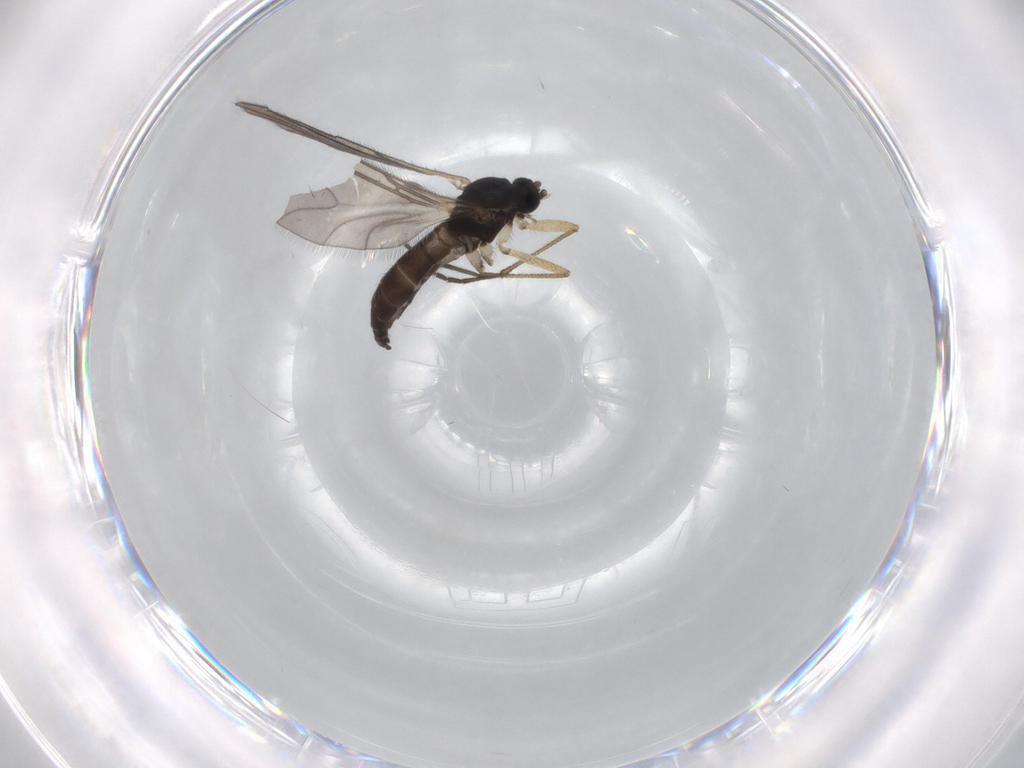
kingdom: Animalia
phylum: Arthropoda
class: Insecta
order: Diptera
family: Sciaridae
